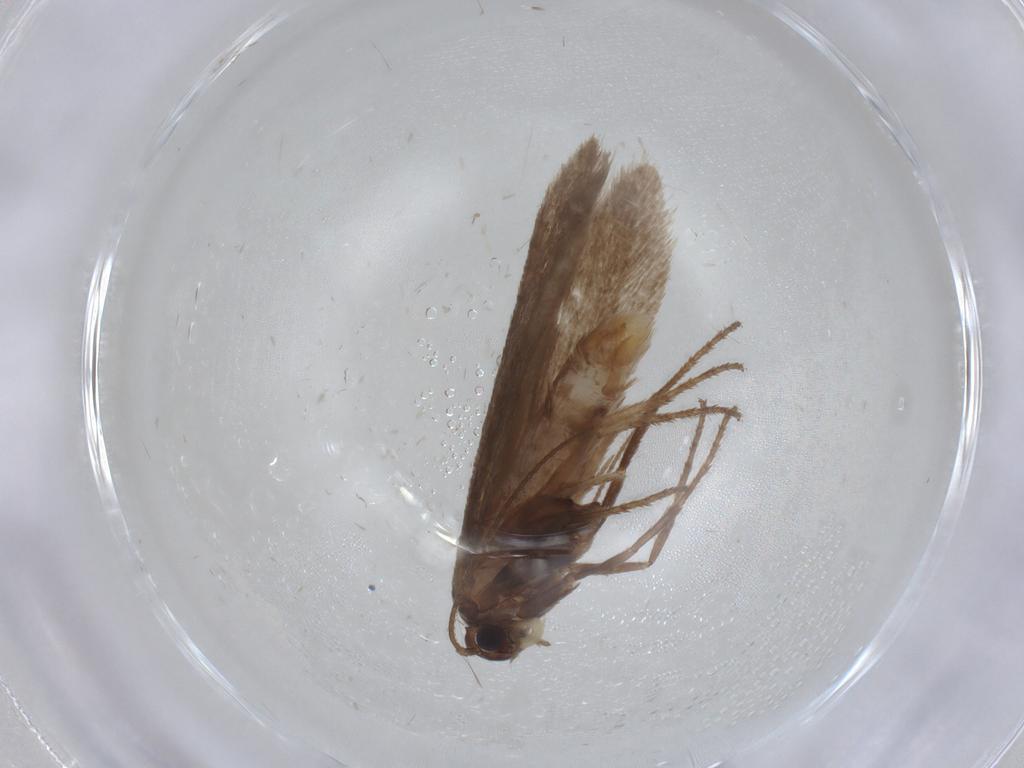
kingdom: Animalia
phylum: Arthropoda
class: Insecta
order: Lepidoptera
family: Limacodidae
